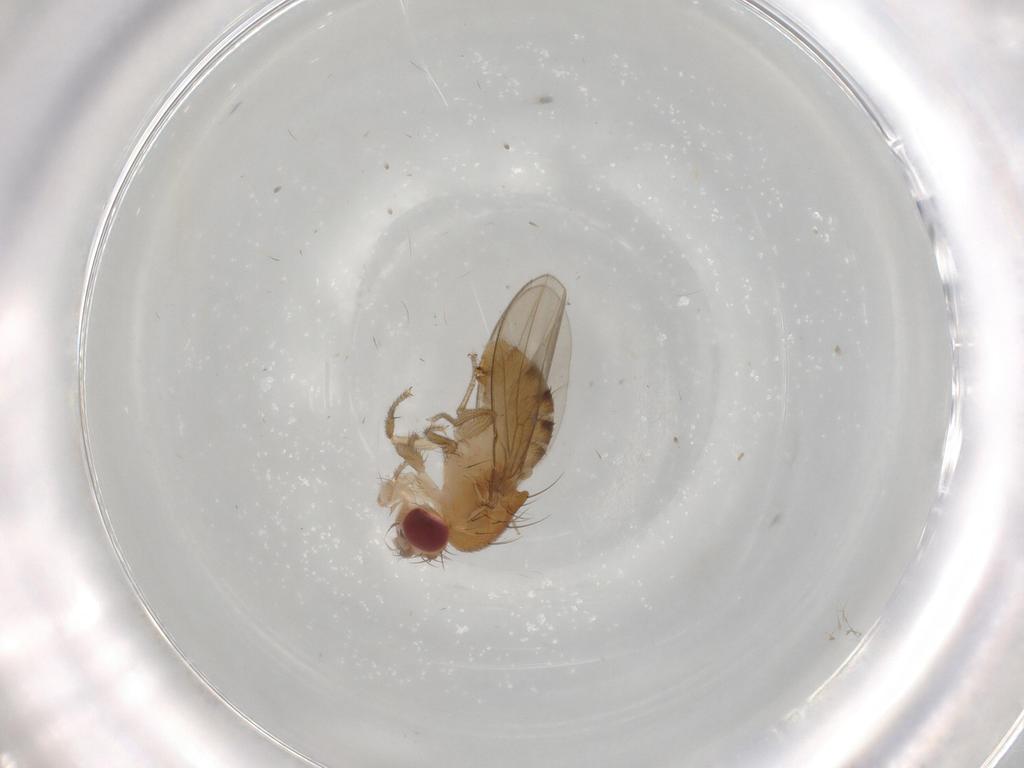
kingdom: Animalia
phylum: Arthropoda
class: Insecta
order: Diptera
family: Drosophilidae
